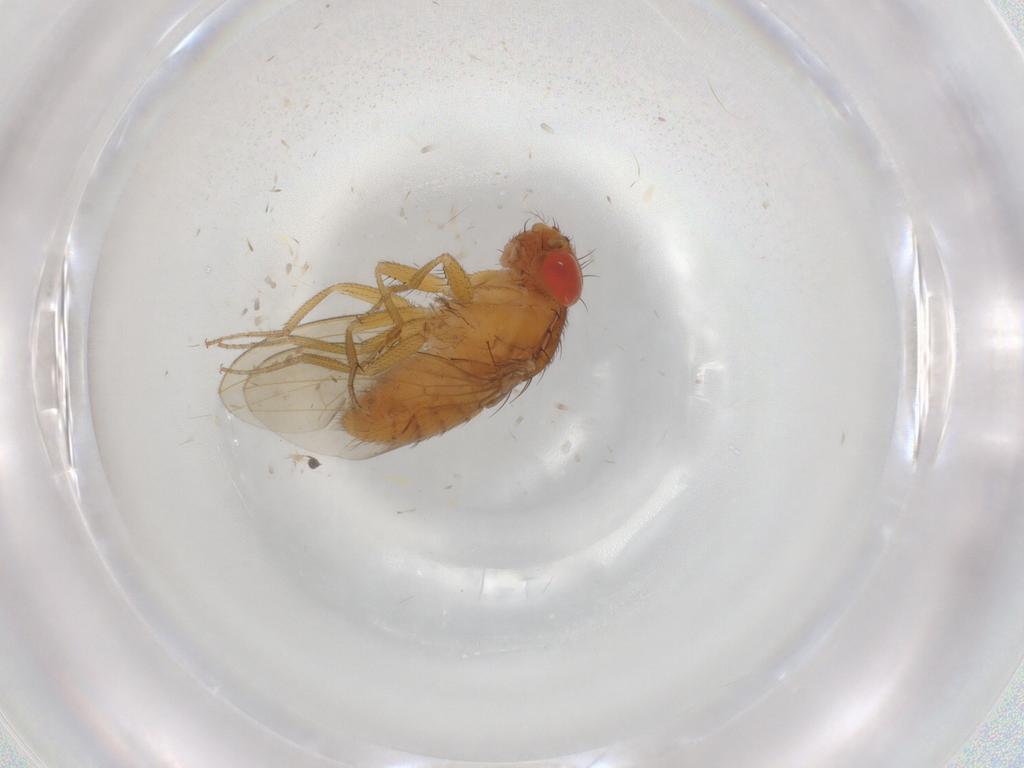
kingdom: Animalia
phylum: Arthropoda
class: Insecta
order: Diptera
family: Drosophilidae
